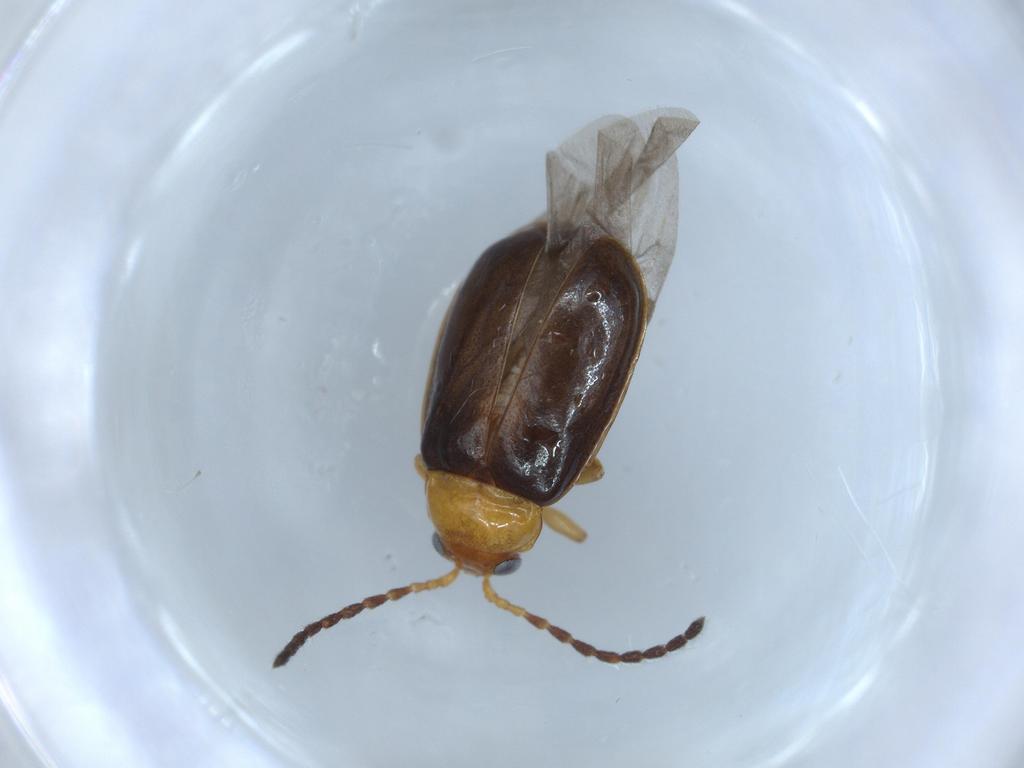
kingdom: Animalia
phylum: Arthropoda
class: Insecta
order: Coleoptera
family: Chrysomelidae
